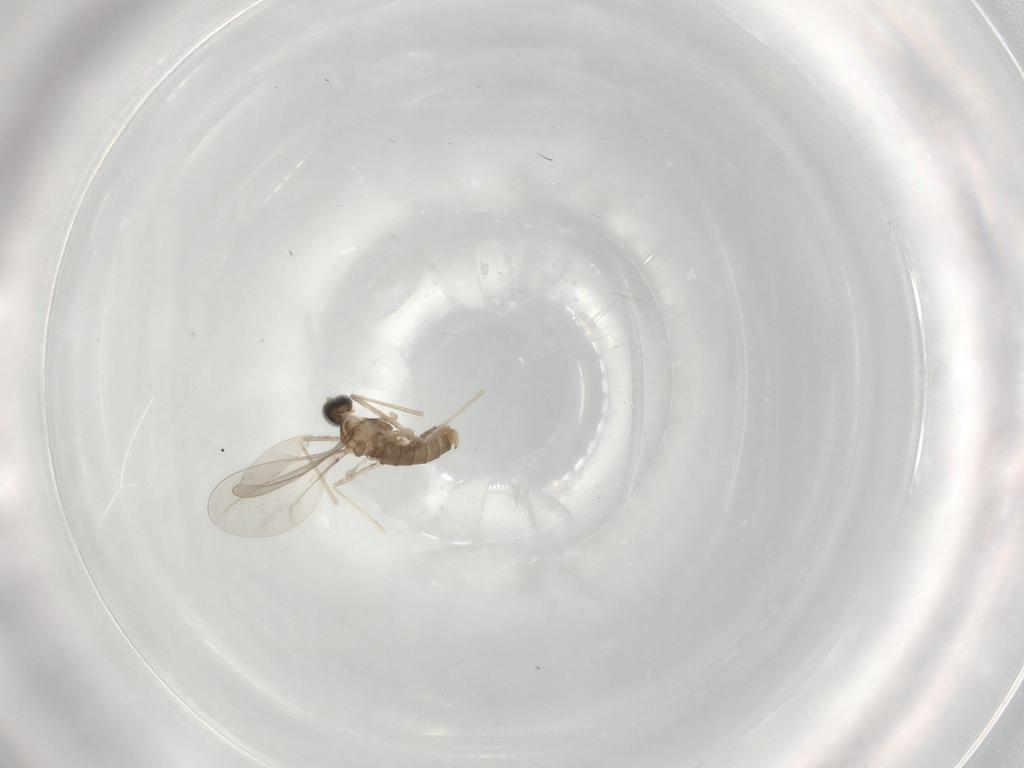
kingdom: Animalia
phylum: Arthropoda
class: Insecta
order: Diptera
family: Cecidomyiidae
